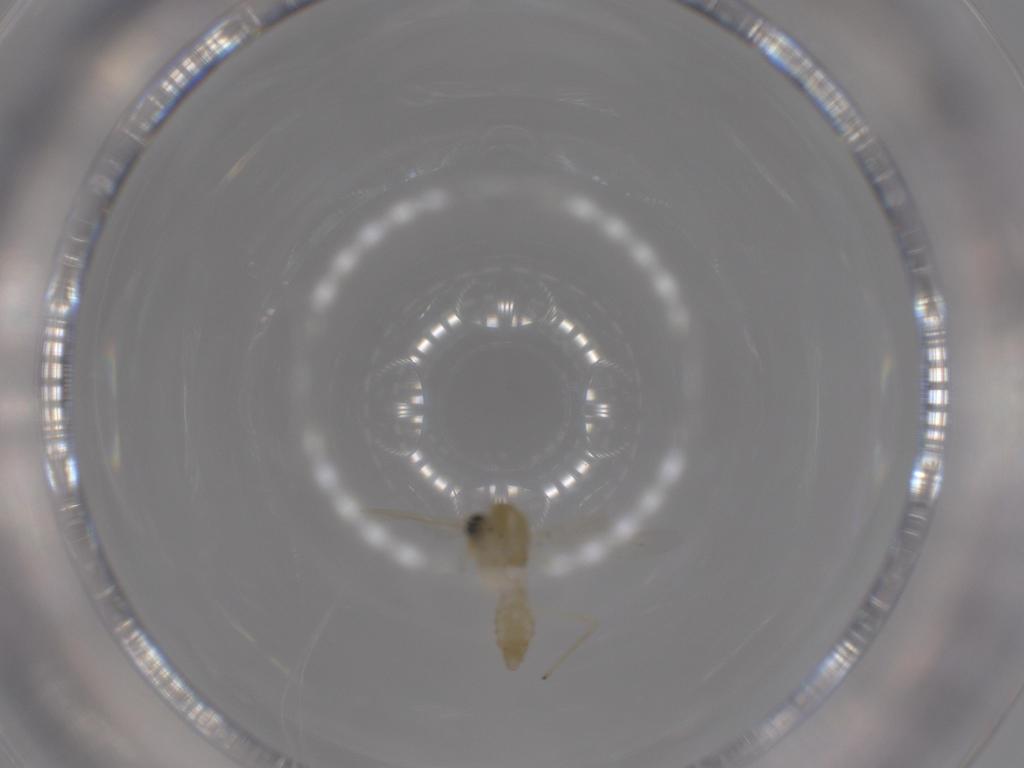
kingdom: Animalia
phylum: Arthropoda
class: Insecta
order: Diptera
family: Chironomidae
